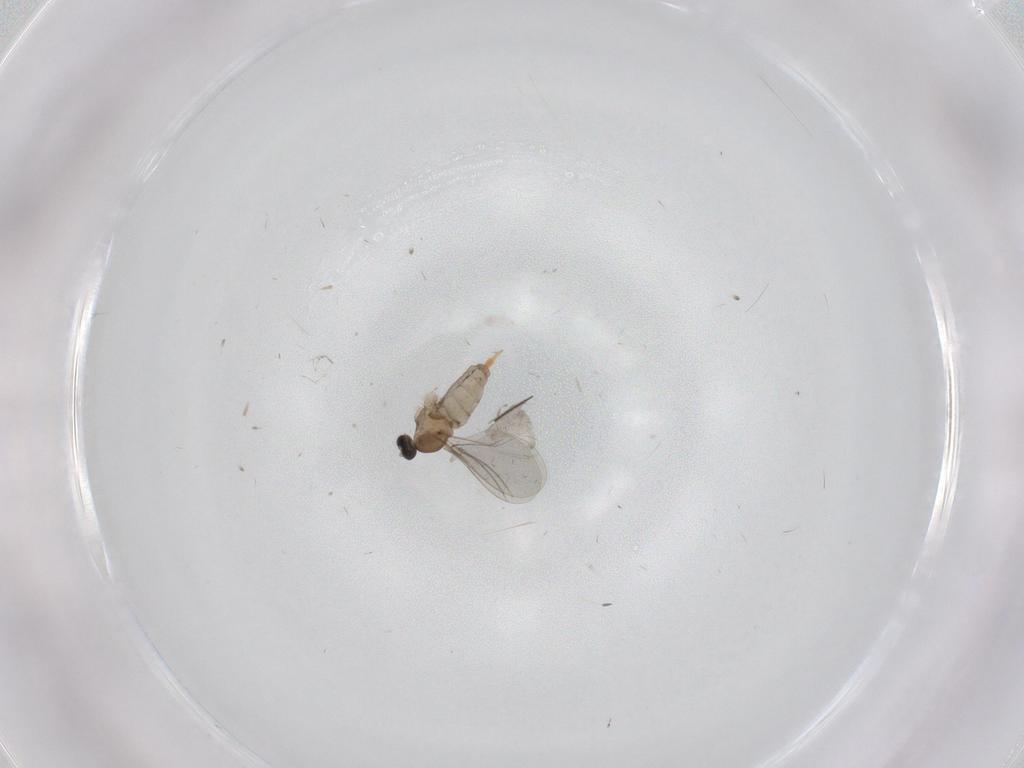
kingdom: Animalia
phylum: Arthropoda
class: Insecta
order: Diptera
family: Cecidomyiidae
